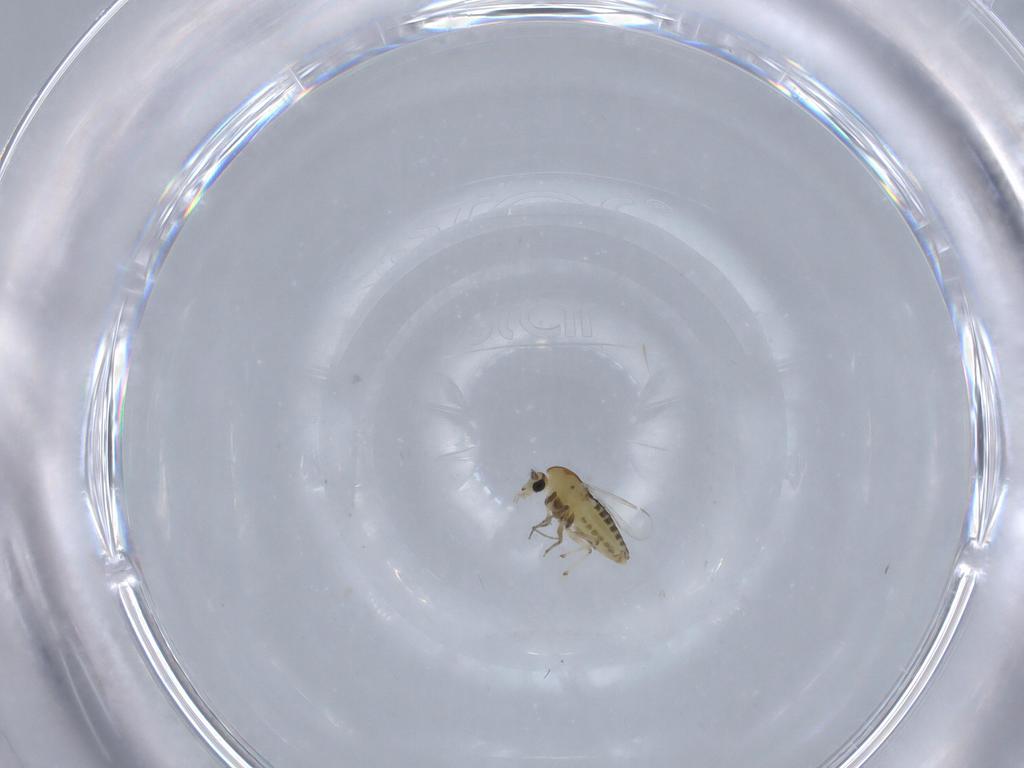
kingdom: Animalia
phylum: Arthropoda
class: Insecta
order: Diptera
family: Chironomidae
